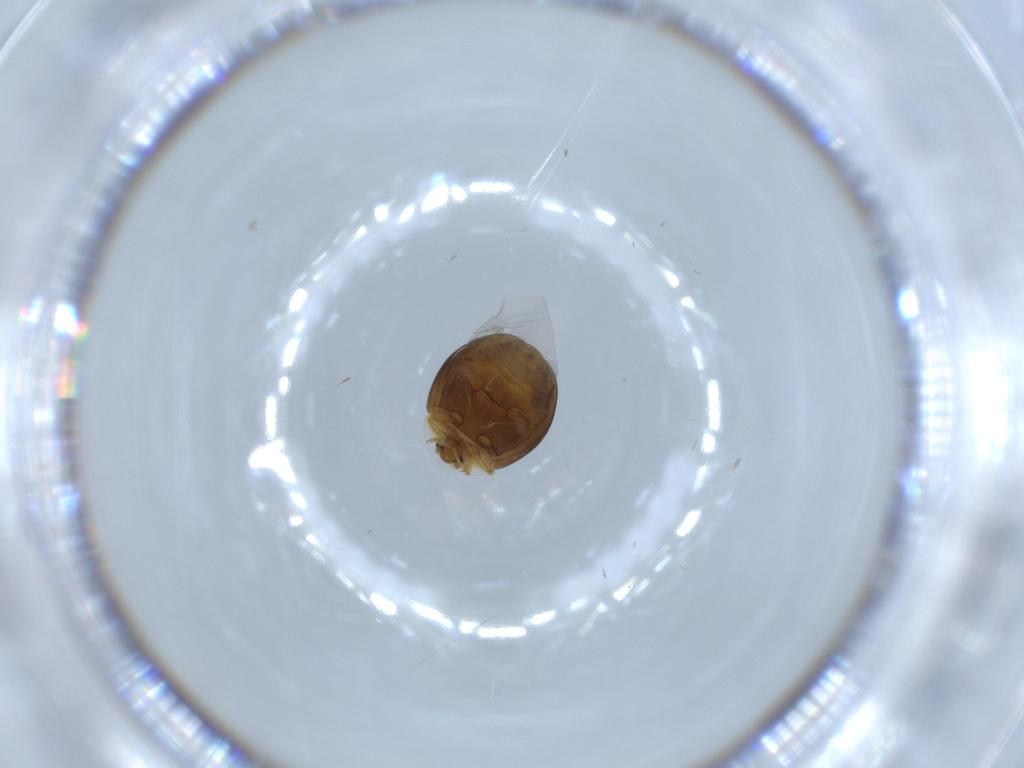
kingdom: Animalia
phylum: Arthropoda
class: Insecta
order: Coleoptera
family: Corylophidae
